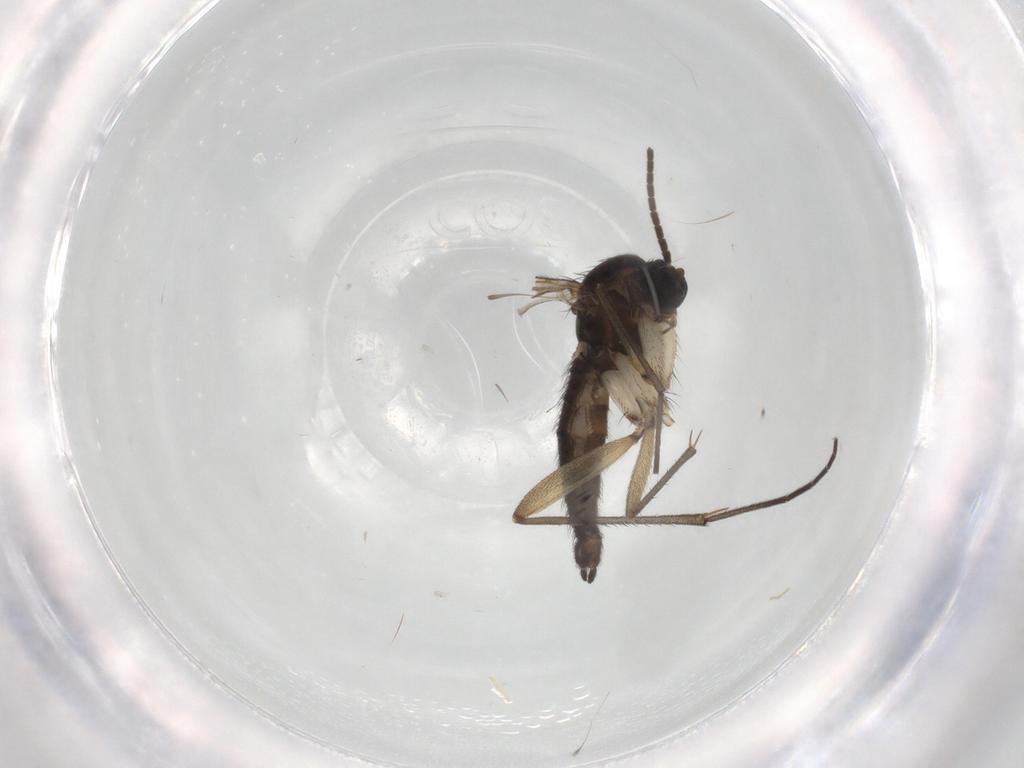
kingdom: Animalia
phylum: Arthropoda
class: Insecta
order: Diptera
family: Sciaridae
